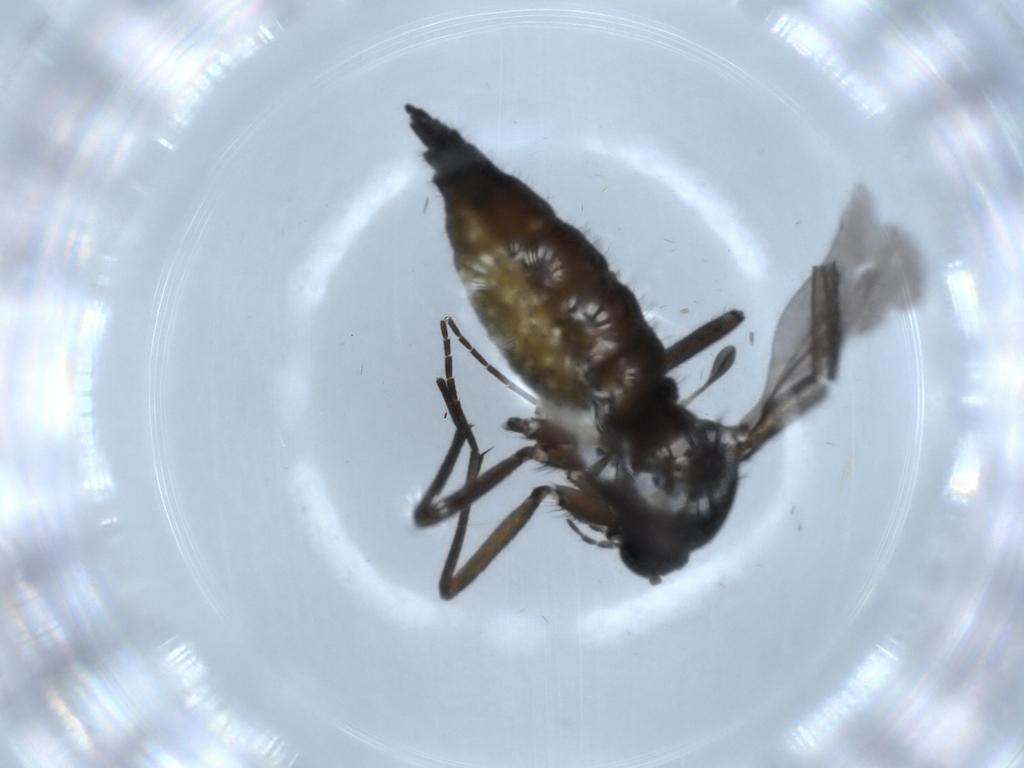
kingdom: Animalia
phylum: Arthropoda
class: Insecta
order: Diptera
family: Sciaridae
